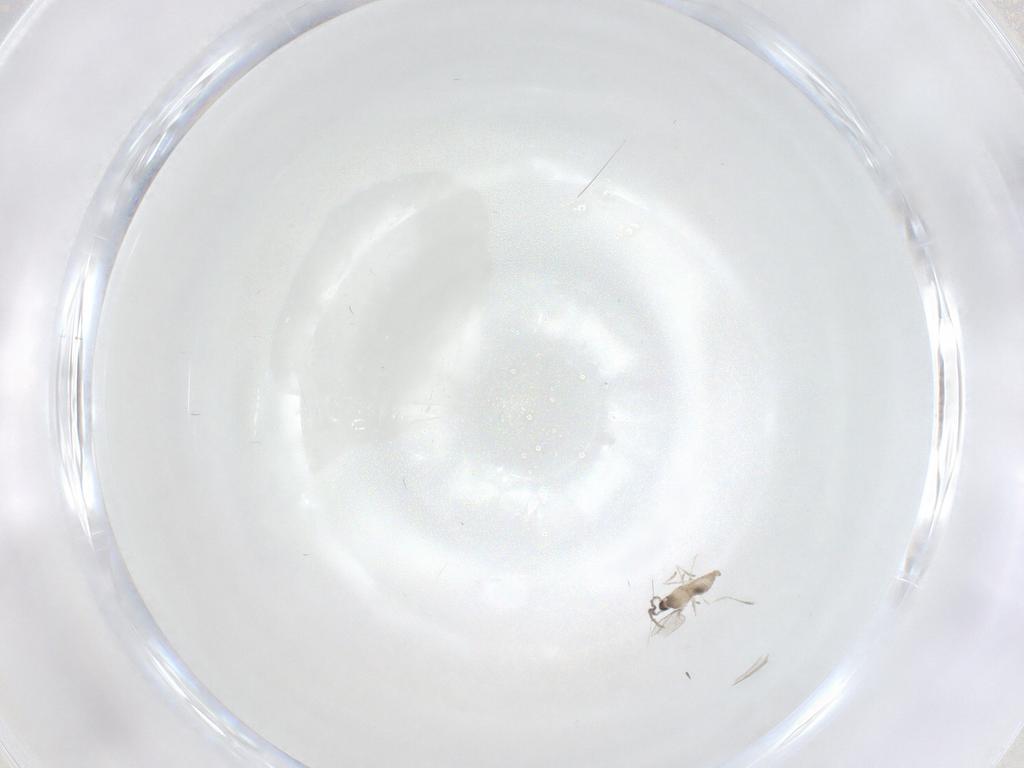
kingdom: Animalia
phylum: Arthropoda
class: Insecta
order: Diptera
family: Cecidomyiidae
